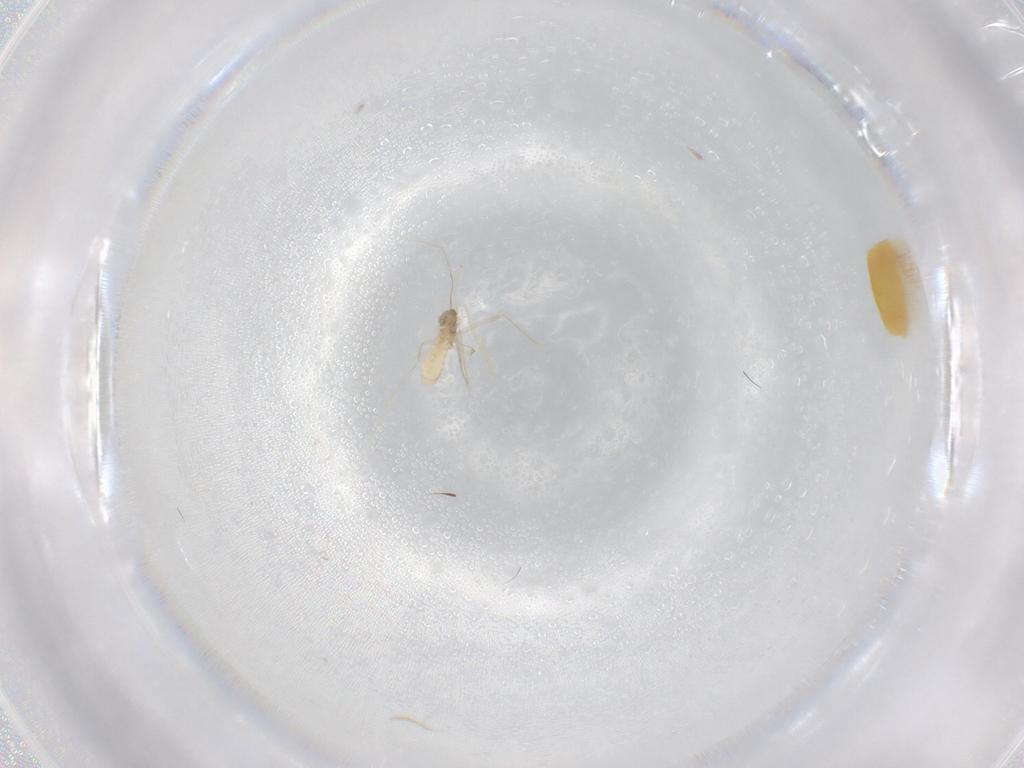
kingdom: Animalia
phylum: Arthropoda
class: Insecta
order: Diptera
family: Cecidomyiidae
